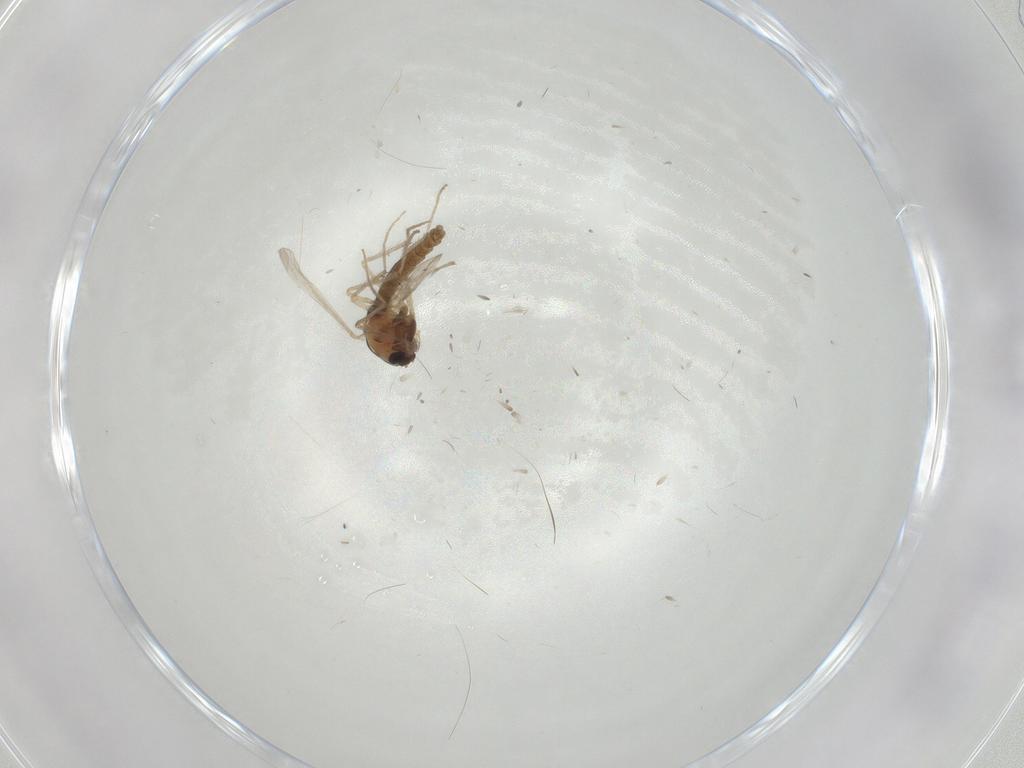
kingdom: Animalia
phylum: Arthropoda
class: Insecta
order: Diptera
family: Chironomidae
